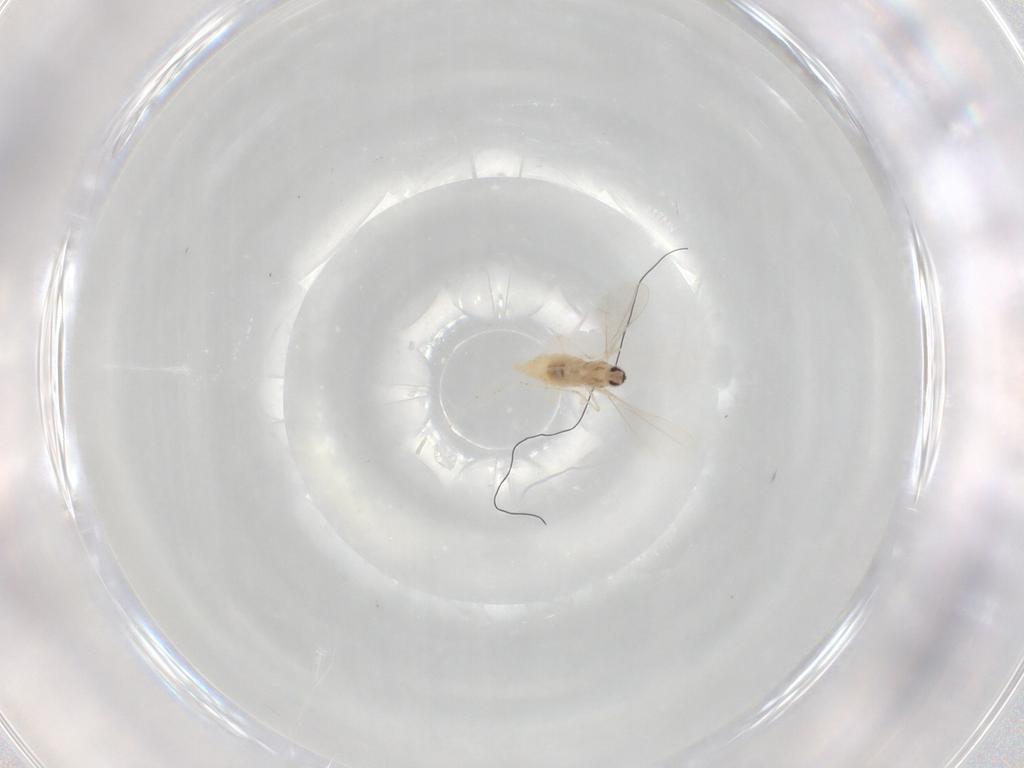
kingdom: Animalia
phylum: Arthropoda
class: Insecta
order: Diptera
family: Cecidomyiidae
